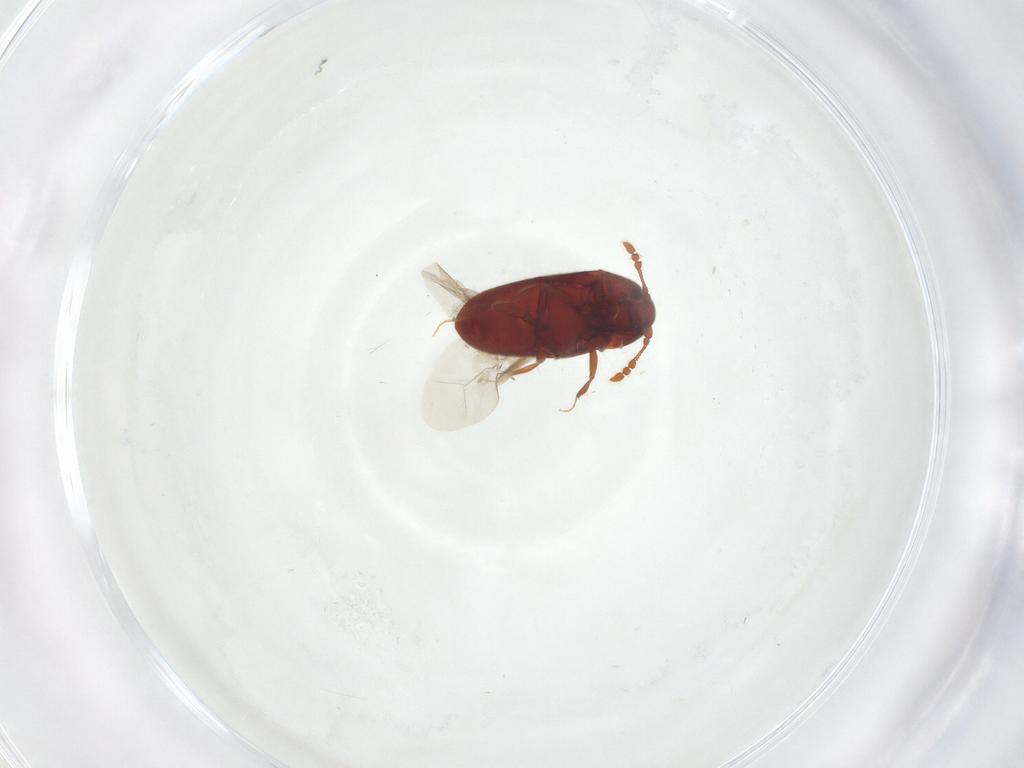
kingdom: Animalia
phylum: Arthropoda
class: Insecta
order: Coleoptera
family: Throscidae
